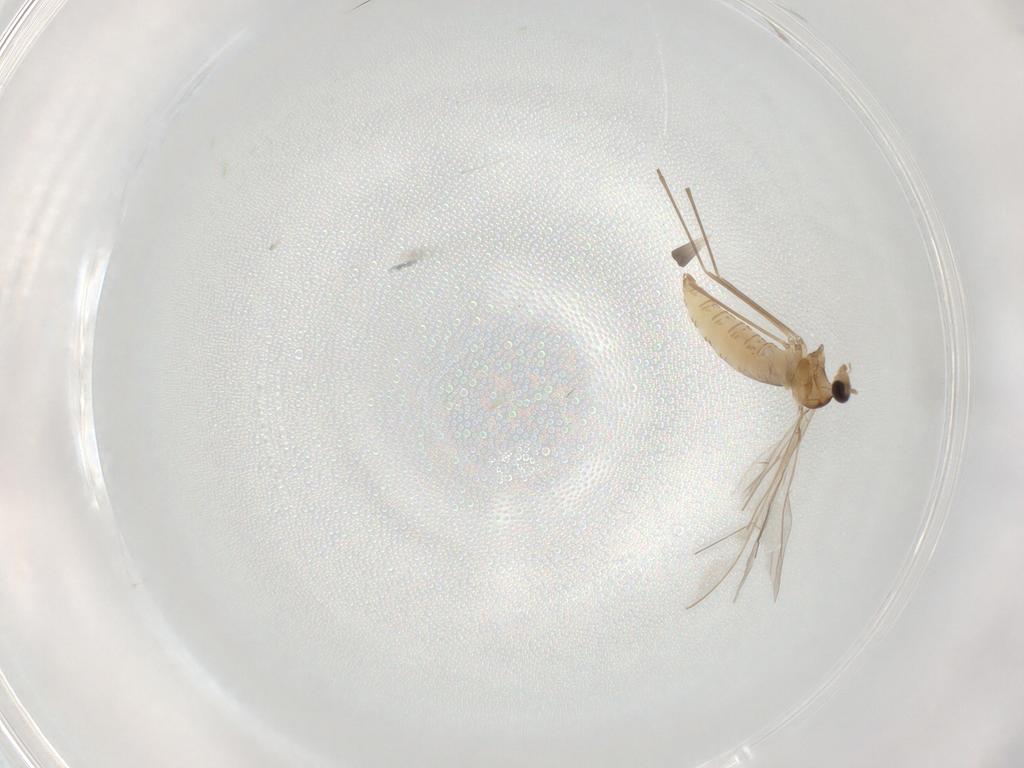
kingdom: Animalia
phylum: Arthropoda
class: Insecta
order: Diptera
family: Cecidomyiidae
